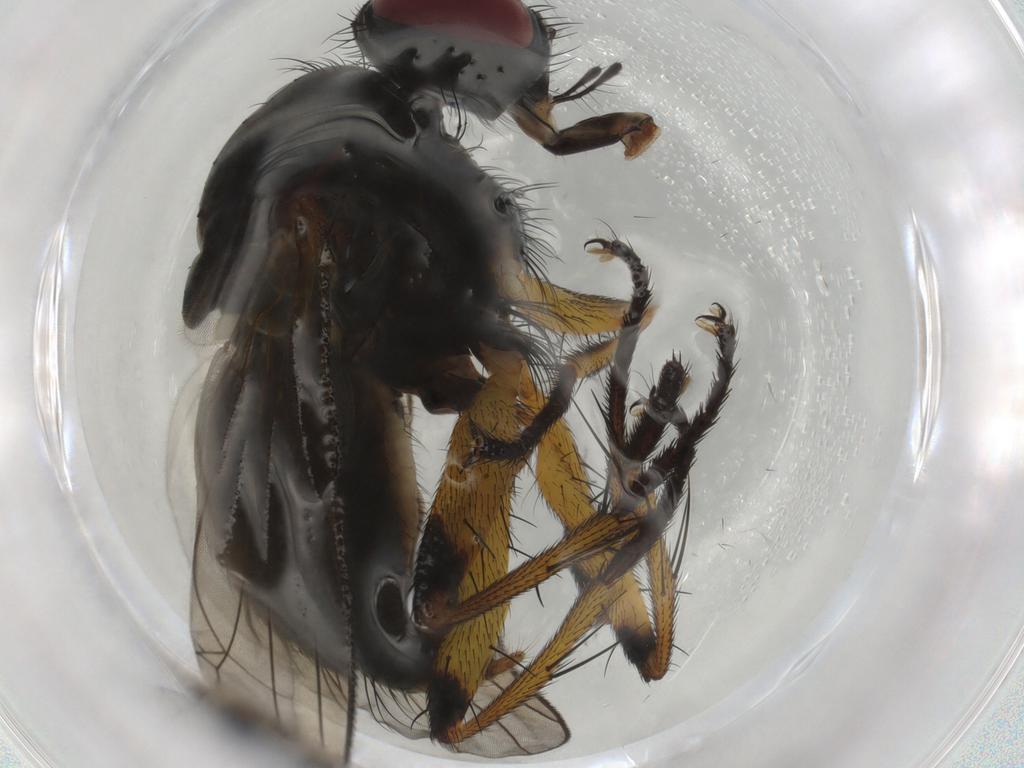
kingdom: Animalia
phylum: Arthropoda
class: Insecta
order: Diptera
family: Muscidae
